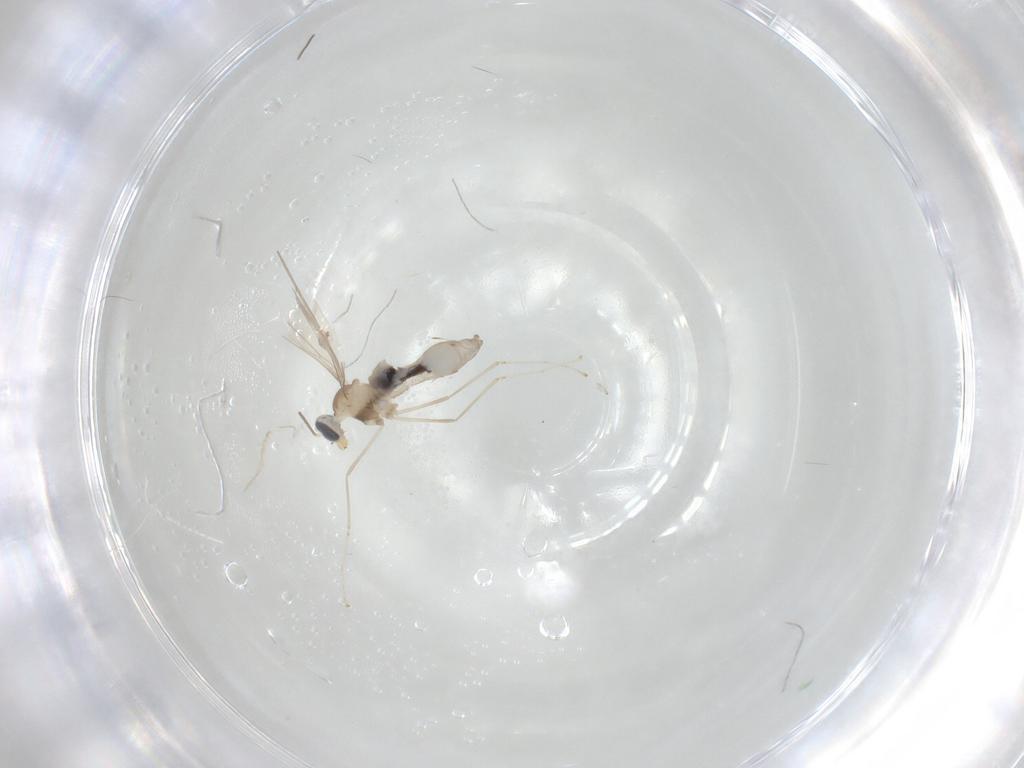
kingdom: Animalia
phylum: Arthropoda
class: Insecta
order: Diptera
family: Cecidomyiidae
